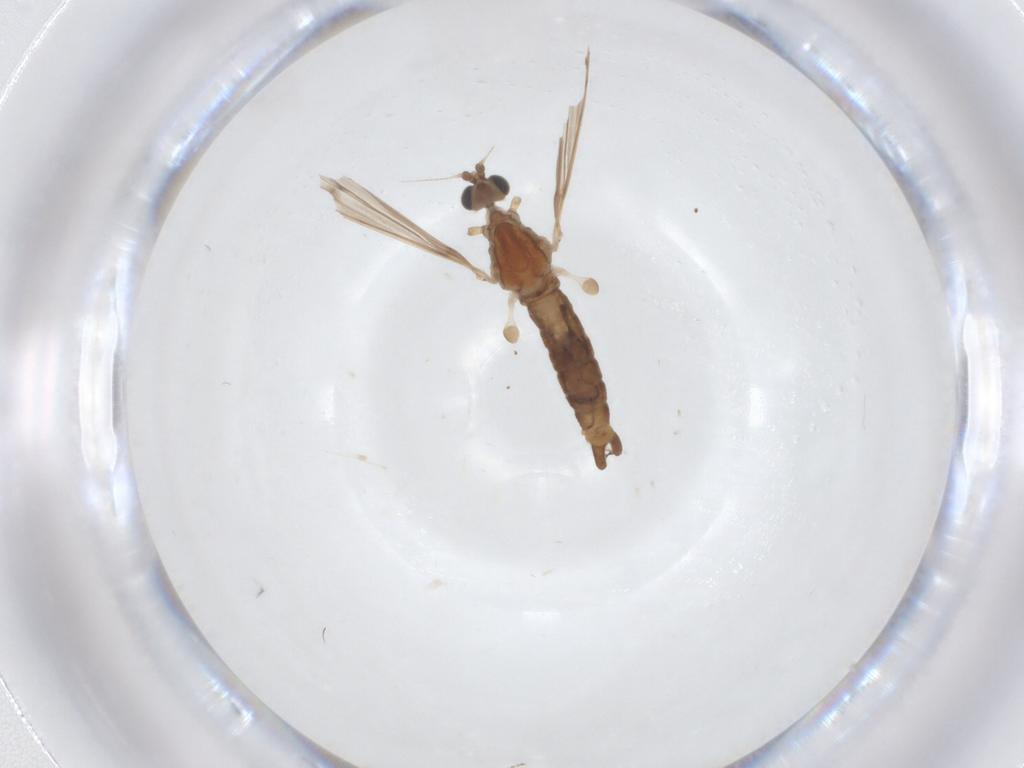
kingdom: Animalia
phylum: Arthropoda
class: Insecta
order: Diptera
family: Limoniidae
